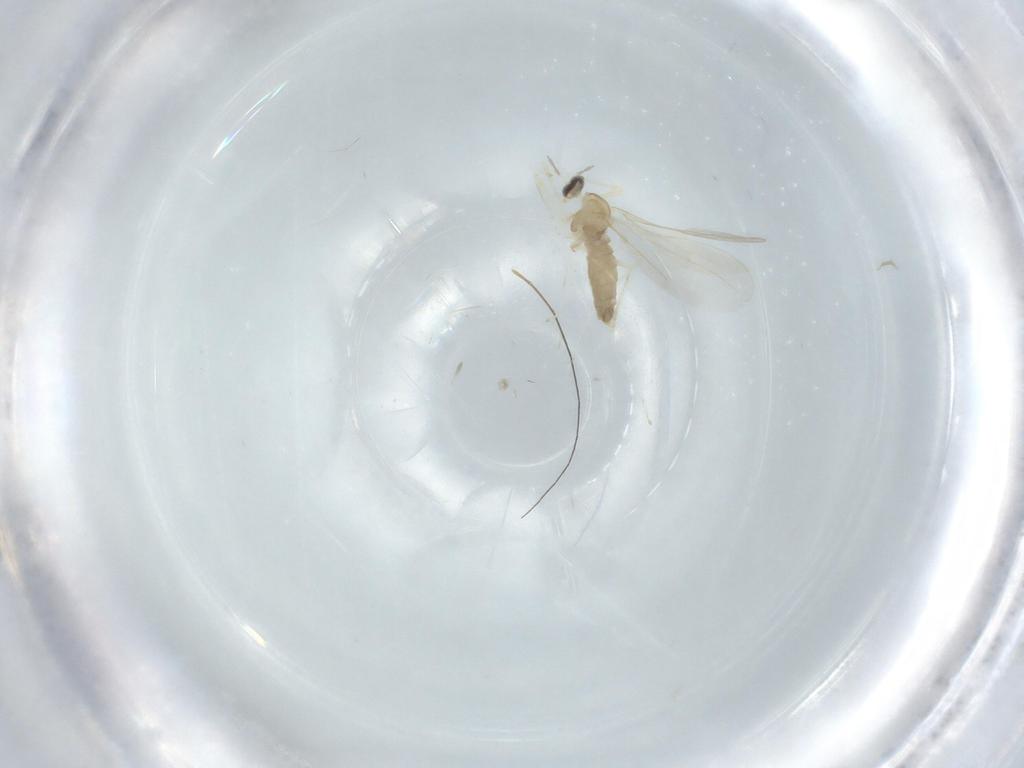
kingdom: Animalia
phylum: Arthropoda
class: Insecta
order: Diptera
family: Cecidomyiidae
